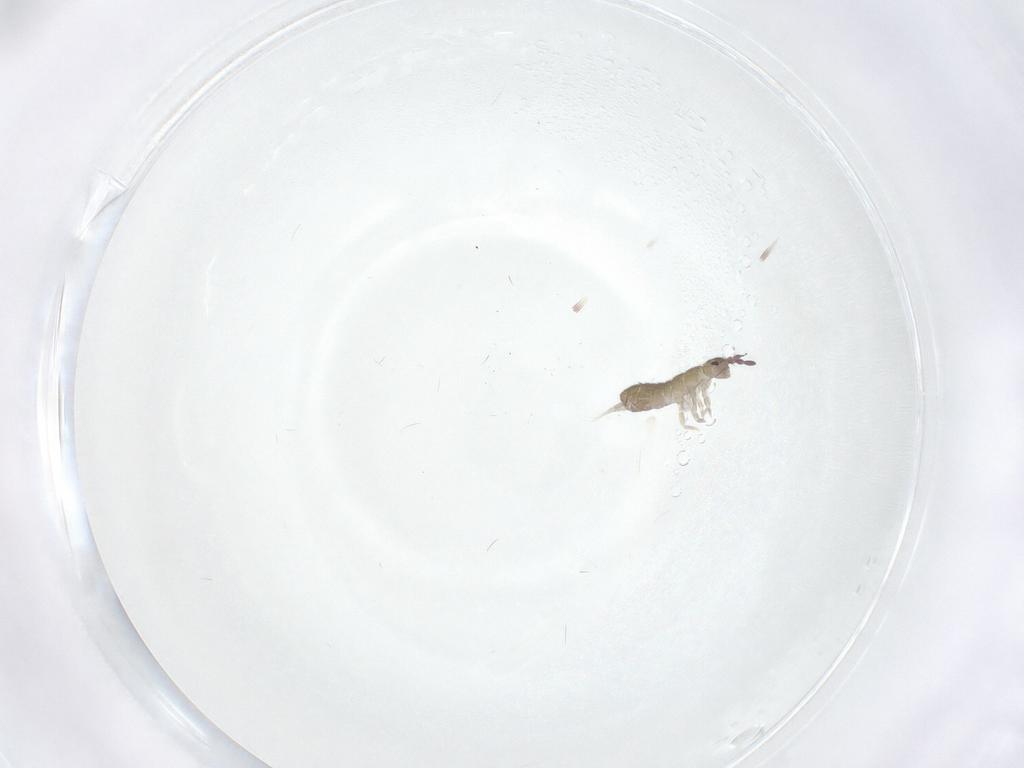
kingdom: Animalia
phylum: Arthropoda
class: Collembola
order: Entomobryomorpha
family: Entomobryidae
